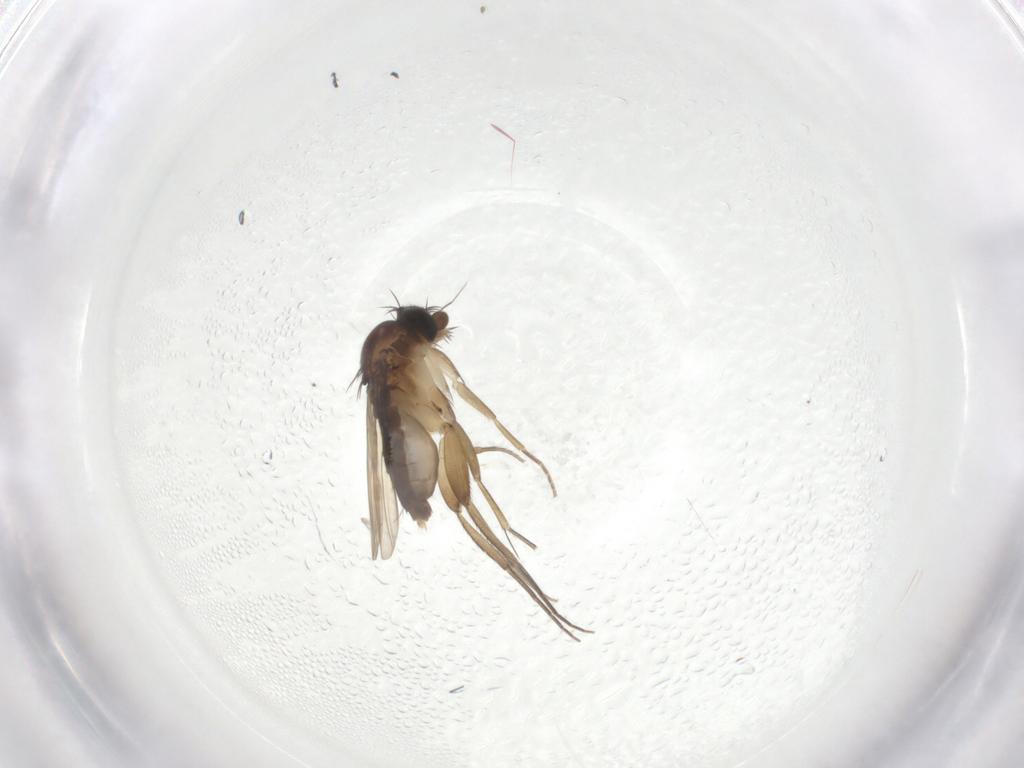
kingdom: Animalia
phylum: Arthropoda
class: Insecta
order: Diptera
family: Phoridae
